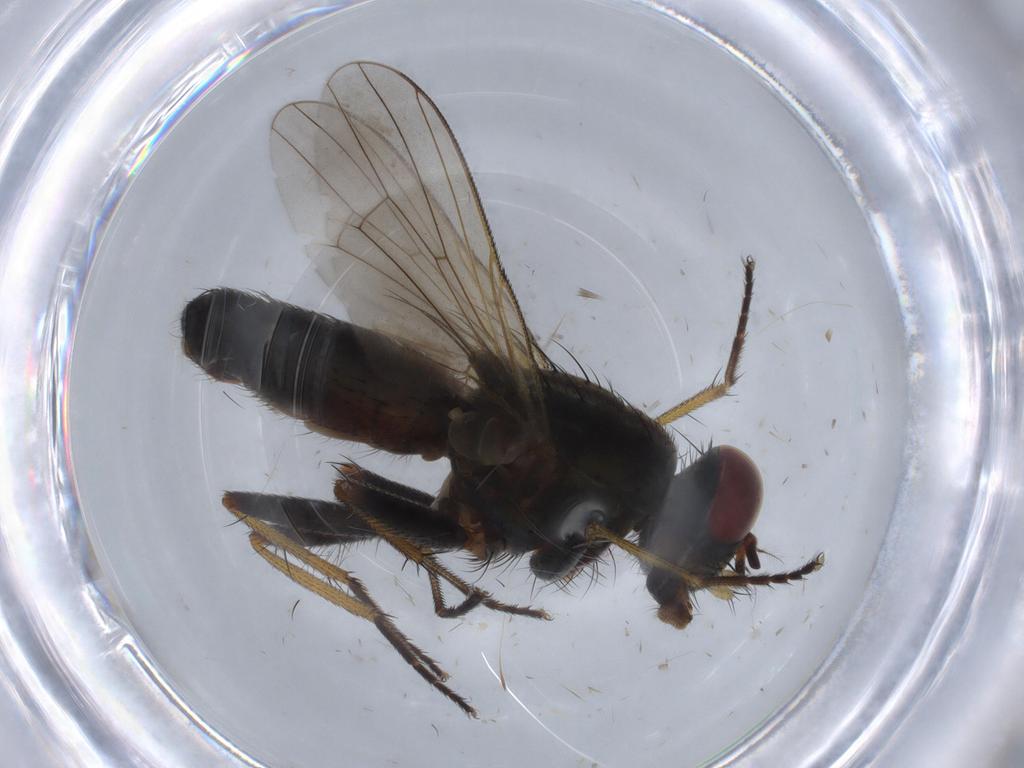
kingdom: Animalia
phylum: Arthropoda
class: Insecta
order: Diptera
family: Muscidae
